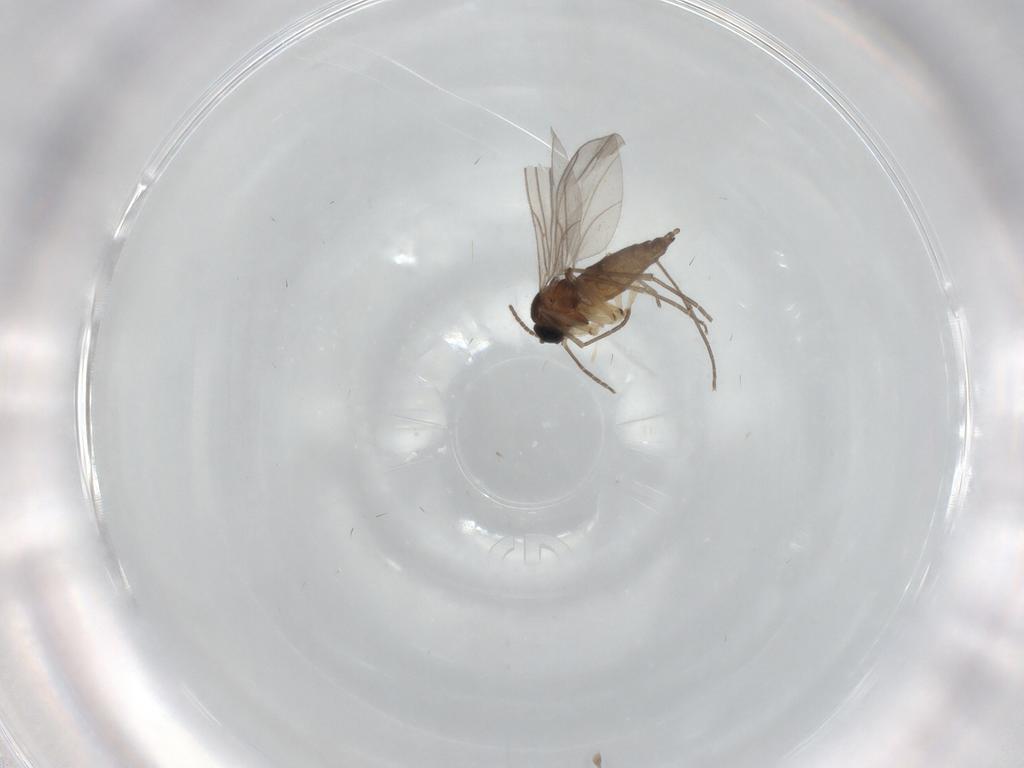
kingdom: Animalia
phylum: Arthropoda
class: Insecta
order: Diptera
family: Sciaridae
